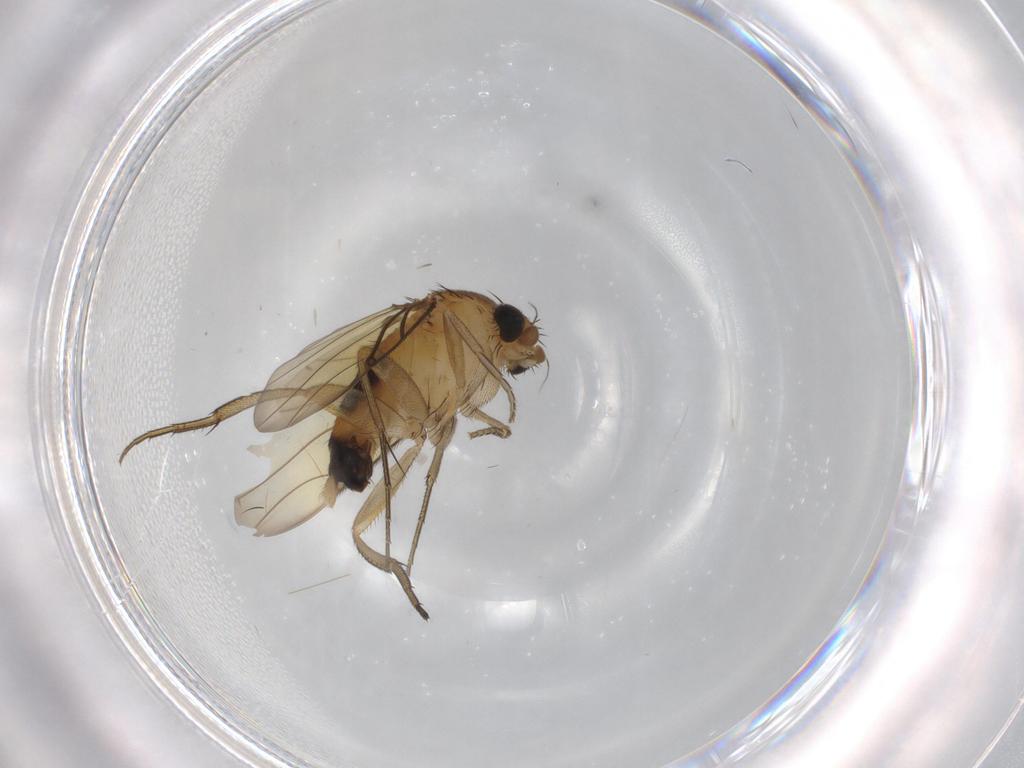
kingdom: Animalia
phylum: Arthropoda
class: Insecta
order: Diptera
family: Phoridae
